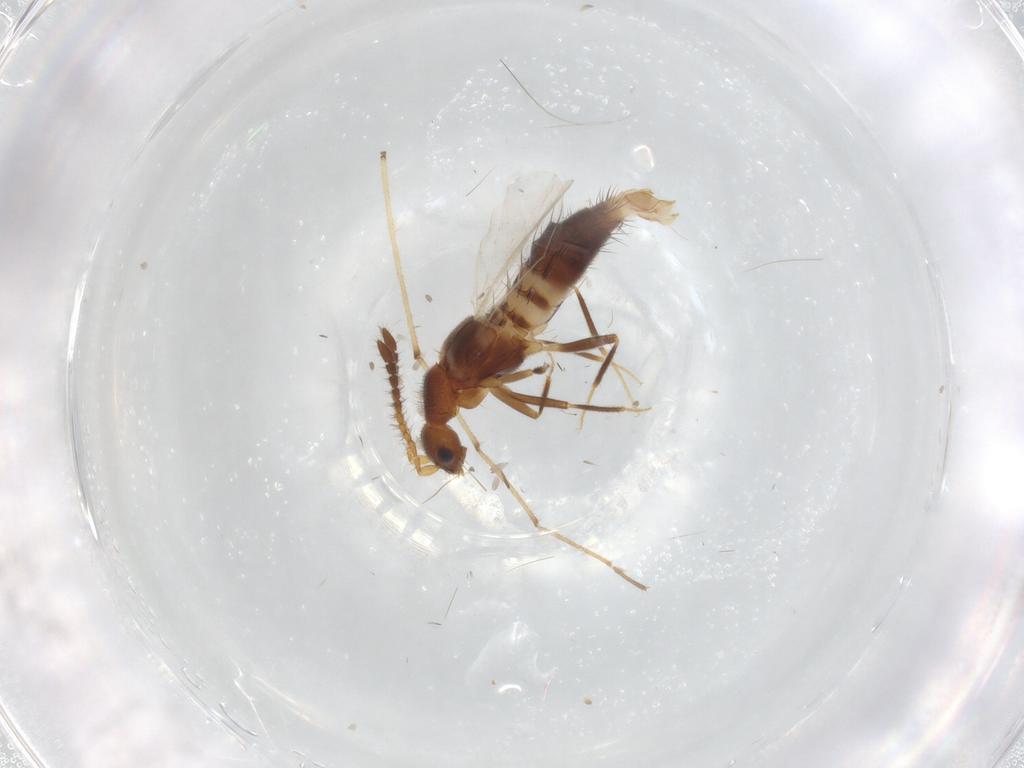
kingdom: Animalia
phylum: Arthropoda
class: Insecta
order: Coleoptera
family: Staphylinidae
